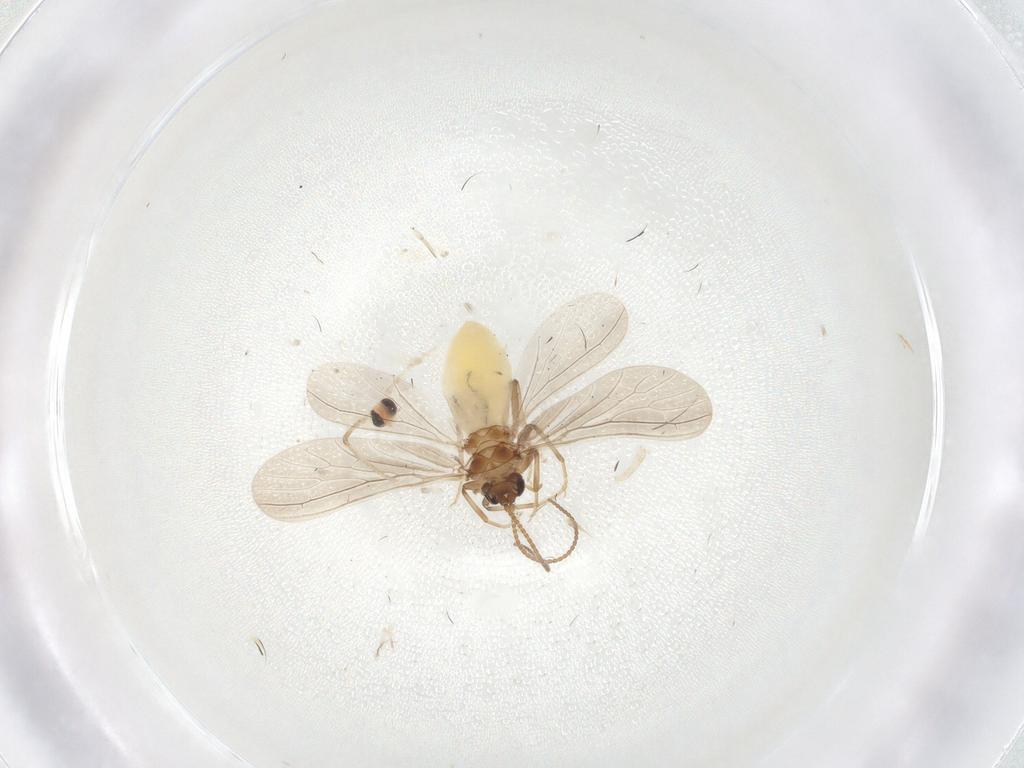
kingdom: Animalia
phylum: Arthropoda
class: Insecta
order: Neuroptera
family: Coniopterygidae
